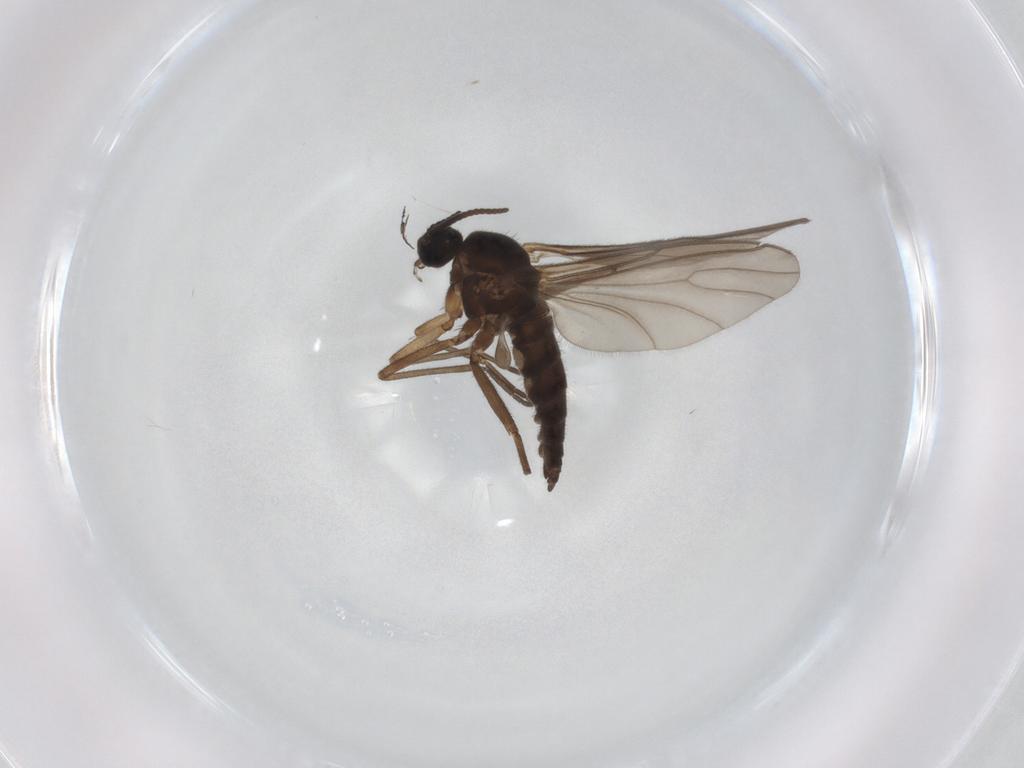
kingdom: Animalia
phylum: Arthropoda
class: Insecta
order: Diptera
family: Sciaridae
